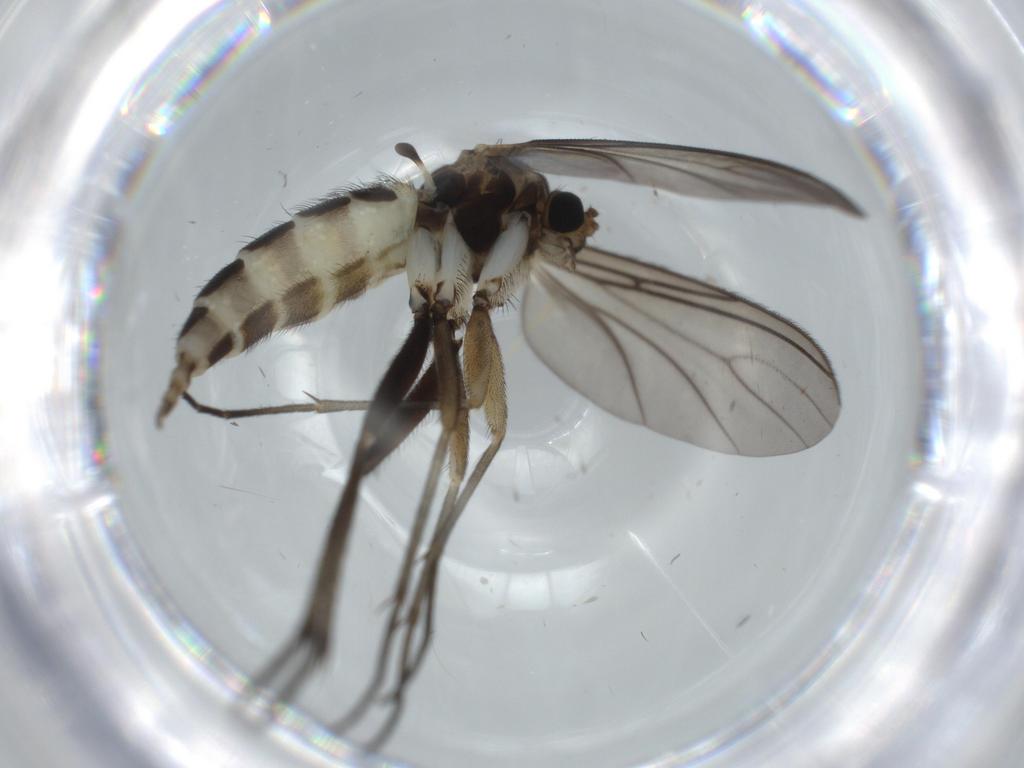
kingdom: Animalia
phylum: Arthropoda
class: Insecta
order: Diptera
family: Sciaridae
